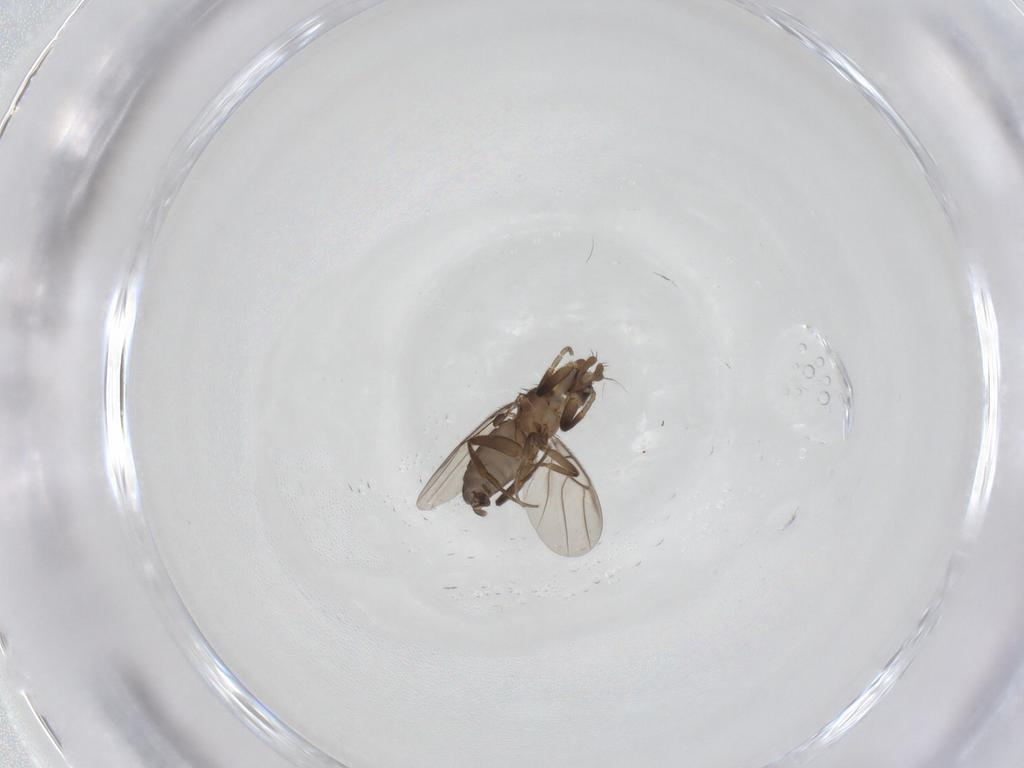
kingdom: Animalia
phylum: Arthropoda
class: Insecta
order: Diptera
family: Phoridae
